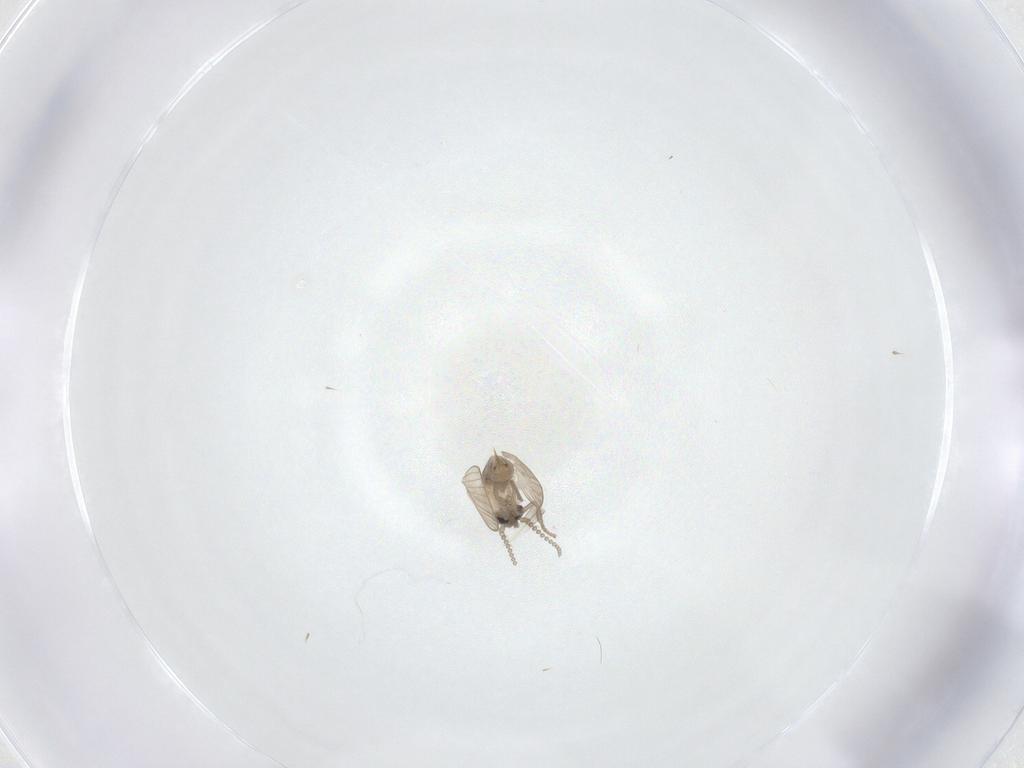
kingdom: Animalia
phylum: Arthropoda
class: Insecta
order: Diptera
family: Psychodidae
